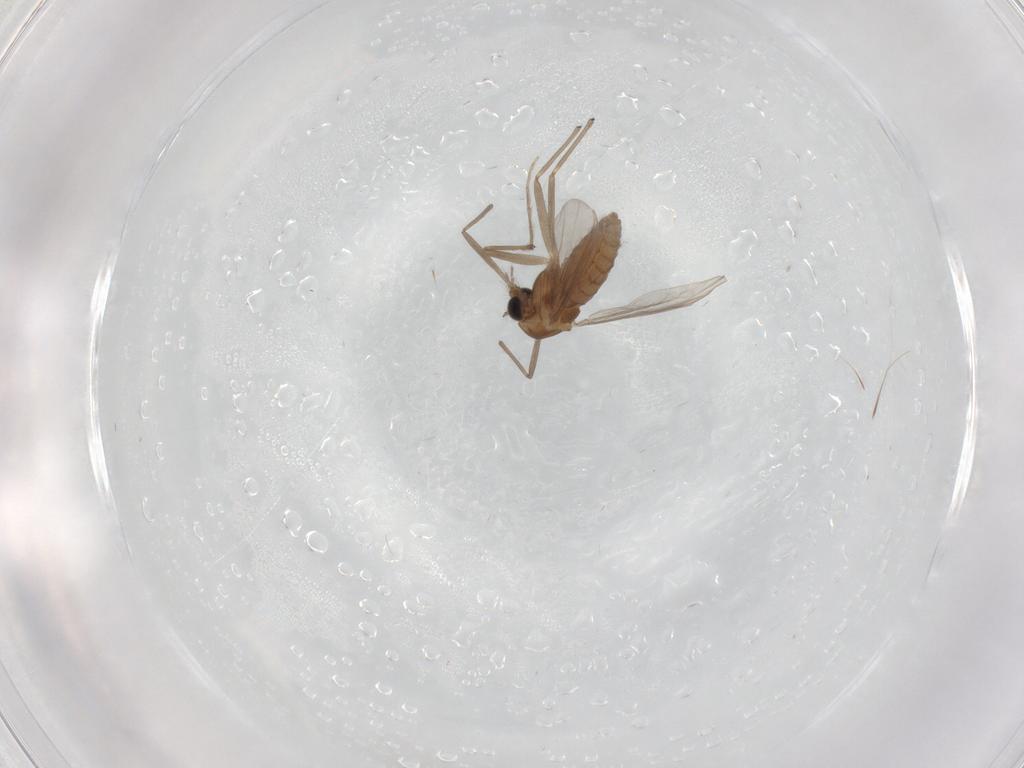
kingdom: Animalia
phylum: Arthropoda
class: Insecta
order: Diptera
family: Chironomidae
